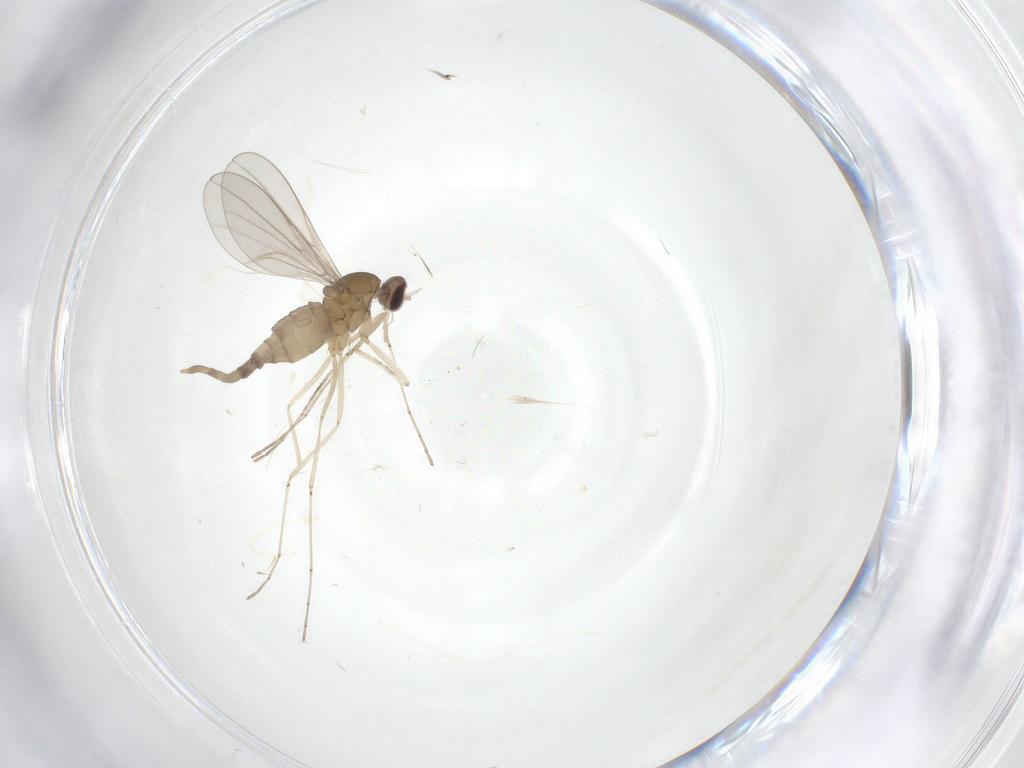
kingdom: Animalia
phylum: Arthropoda
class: Insecta
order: Diptera
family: Sciaridae
